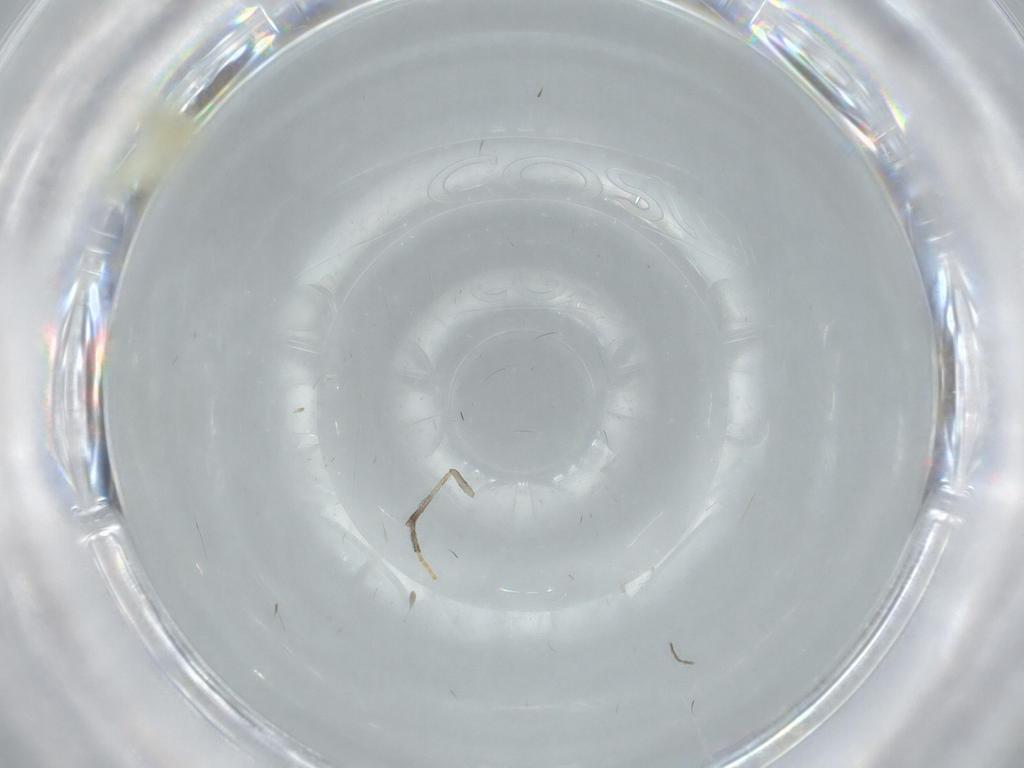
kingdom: Animalia
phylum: Arthropoda
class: Insecta
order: Hemiptera
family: Aleyrodidae
